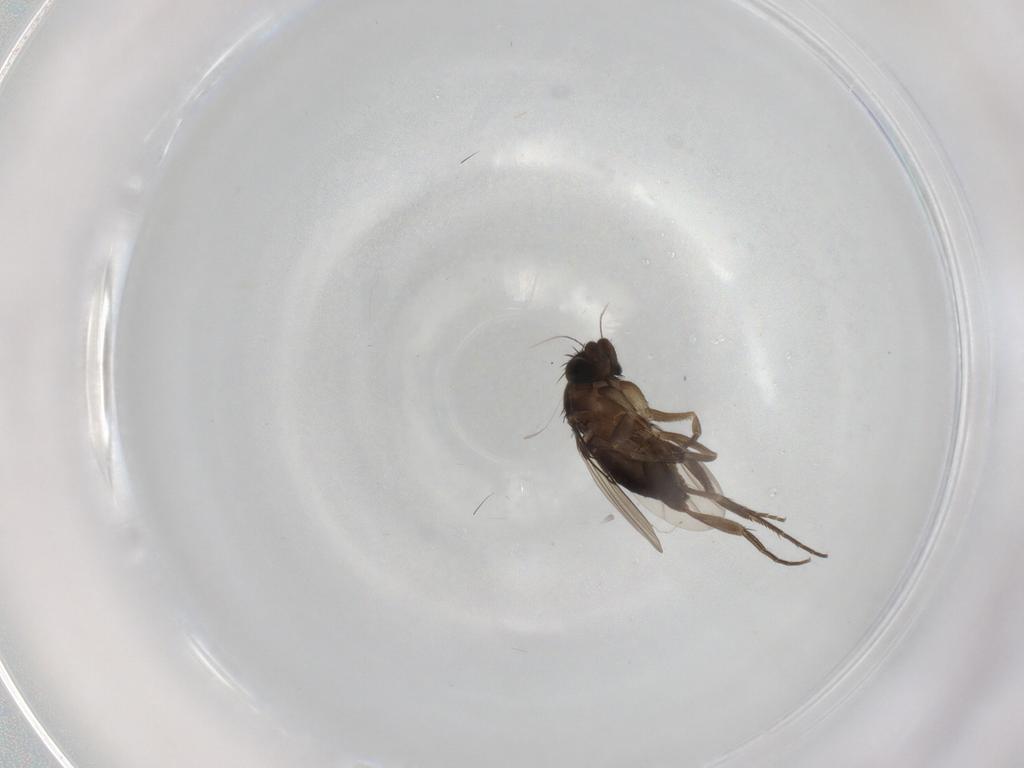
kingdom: Animalia
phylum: Arthropoda
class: Insecta
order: Diptera
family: Phoridae
